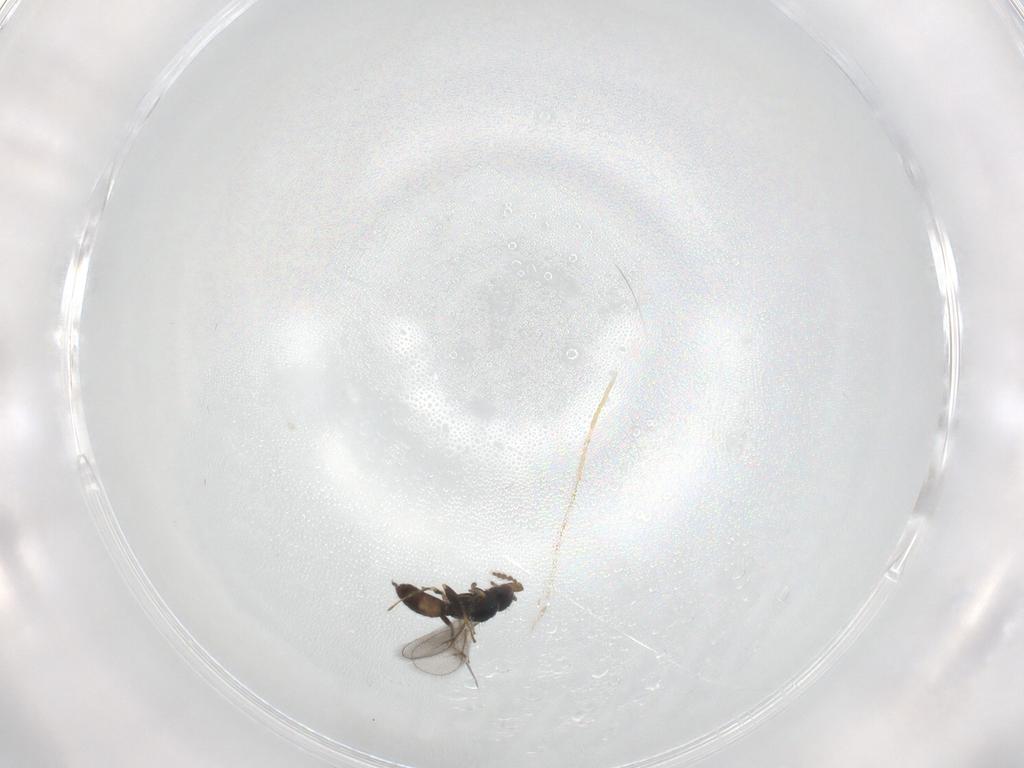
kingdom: Animalia
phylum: Arthropoda
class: Insecta
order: Hymenoptera
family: Eulophidae
